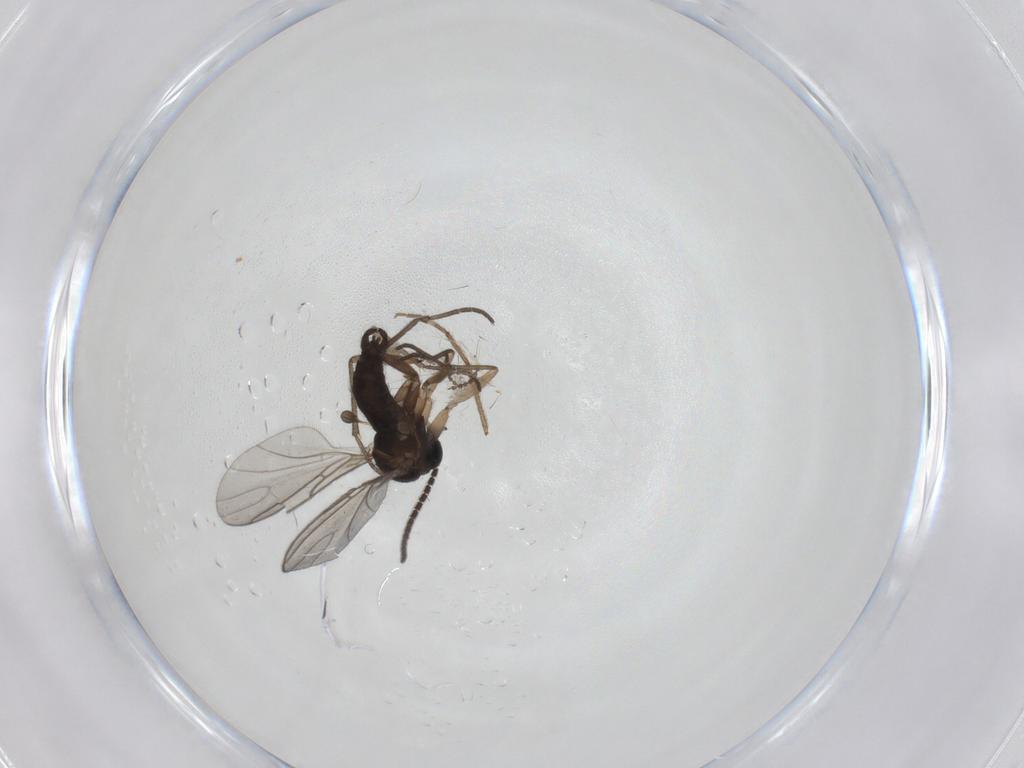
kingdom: Animalia
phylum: Arthropoda
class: Insecta
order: Diptera
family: Sciaridae
